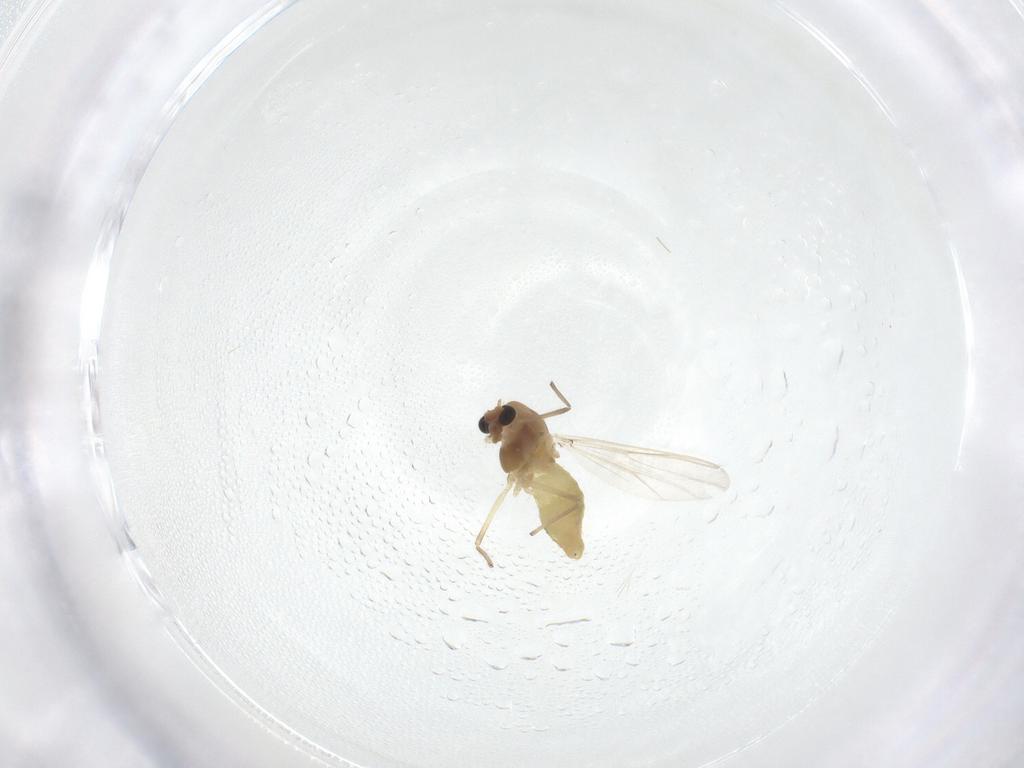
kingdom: Animalia
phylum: Arthropoda
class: Insecta
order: Diptera
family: Chironomidae
